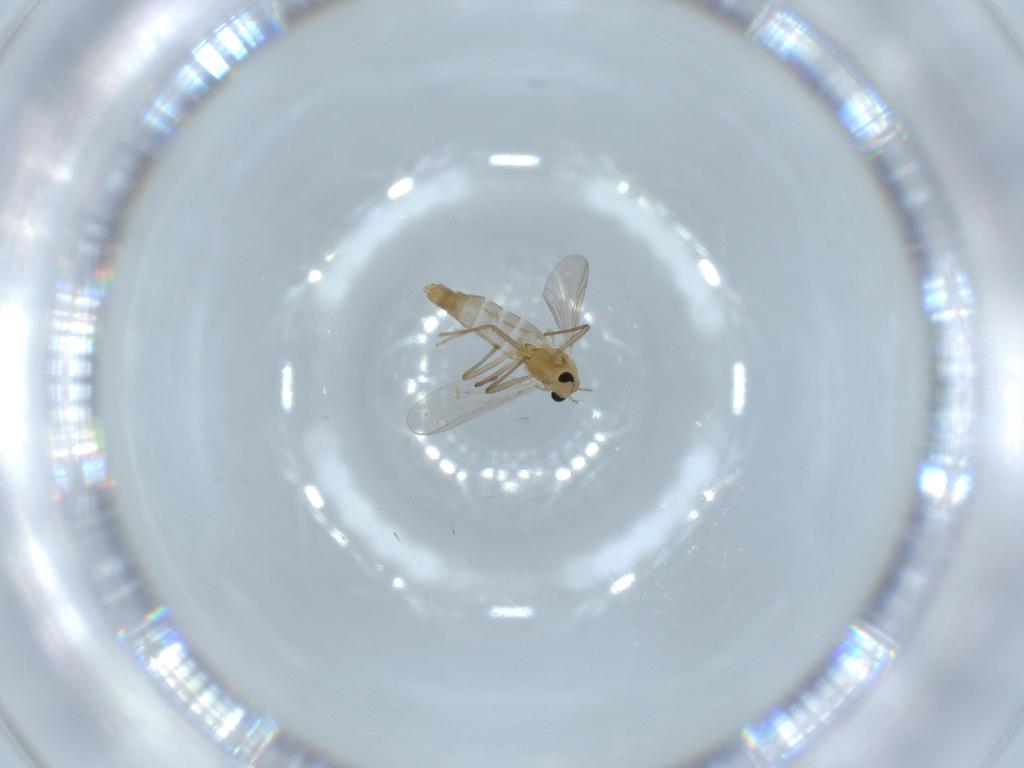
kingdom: Animalia
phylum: Arthropoda
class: Insecta
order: Diptera
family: Chironomidae
